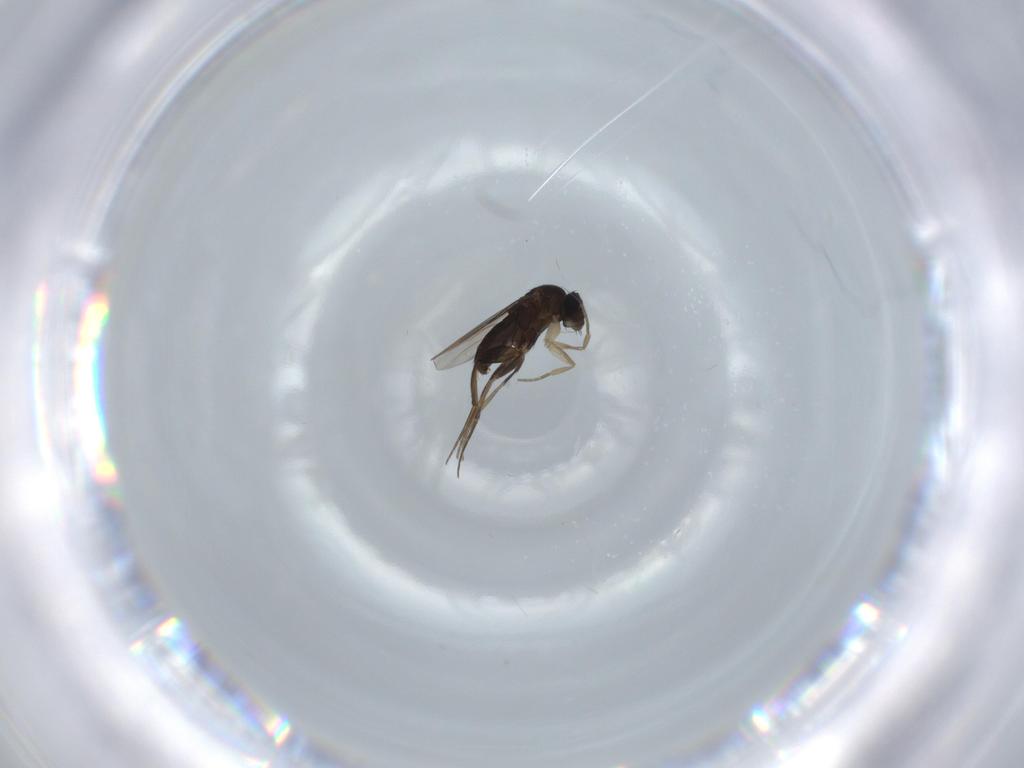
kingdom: Animalia
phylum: Arthropoda
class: Insecta
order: Diptera
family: Phoridae
